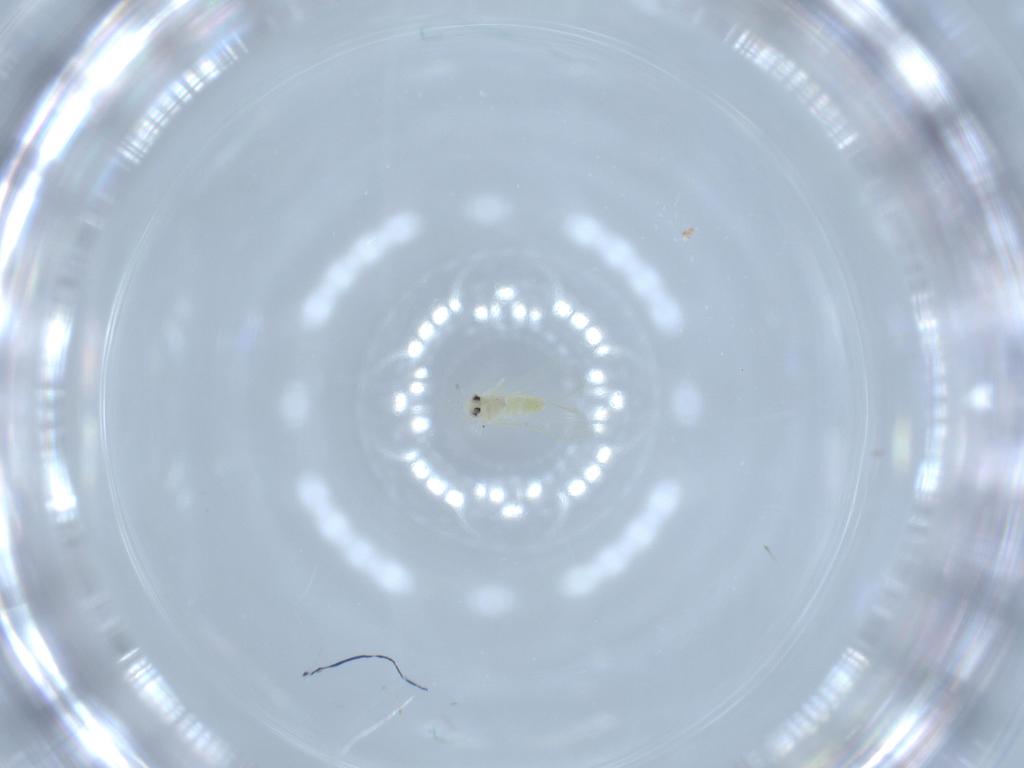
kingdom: Animalia
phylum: Arthropoda
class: Insecta
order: Hemiptera
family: Aleyrodidae
